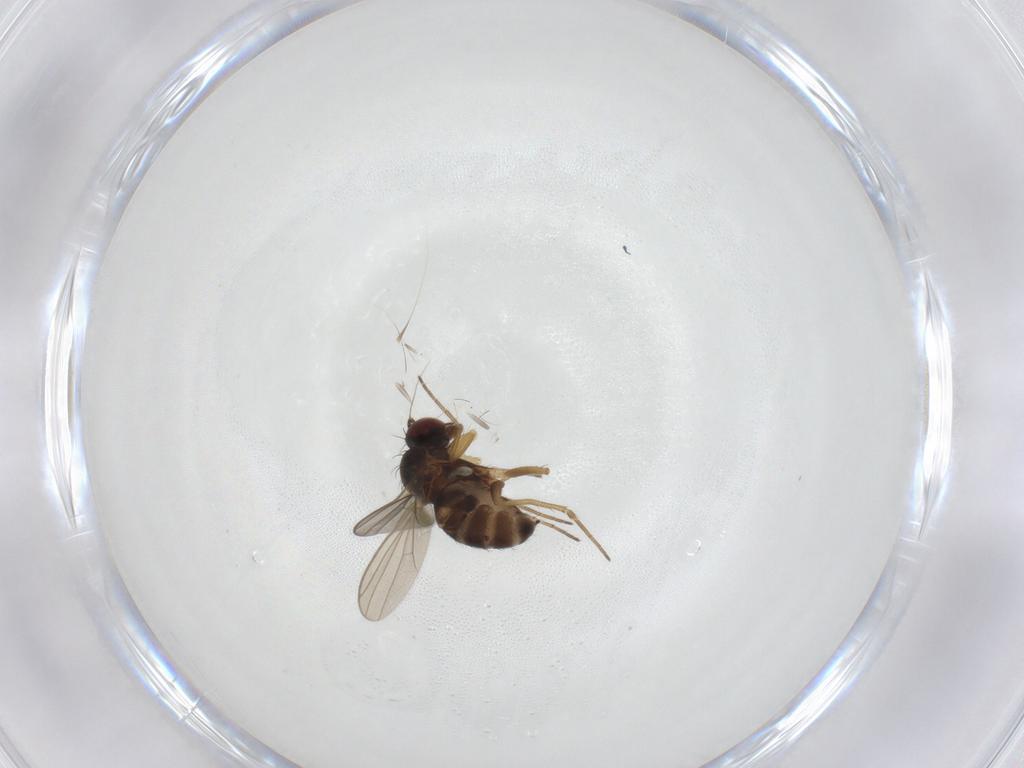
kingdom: Animalia
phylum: Arthropoda
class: Insecta
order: Diptera
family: Dolichopodidae
